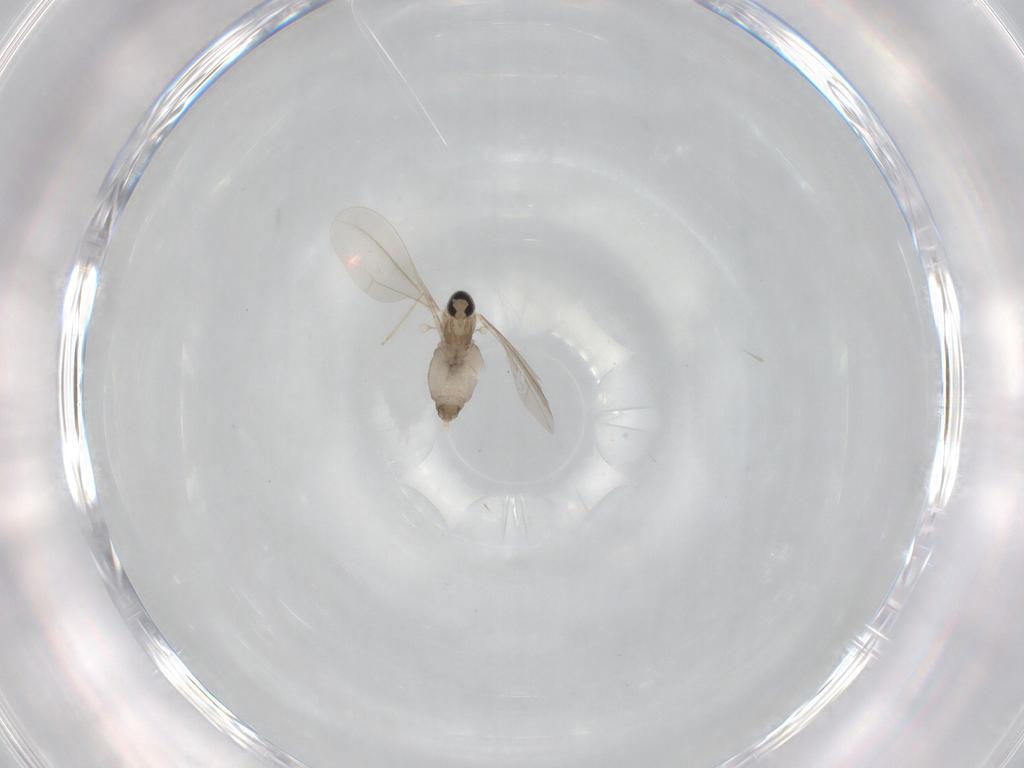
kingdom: Animalia
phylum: Arthropoda
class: Insecta
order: Diptera
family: Cecidomyiidae
